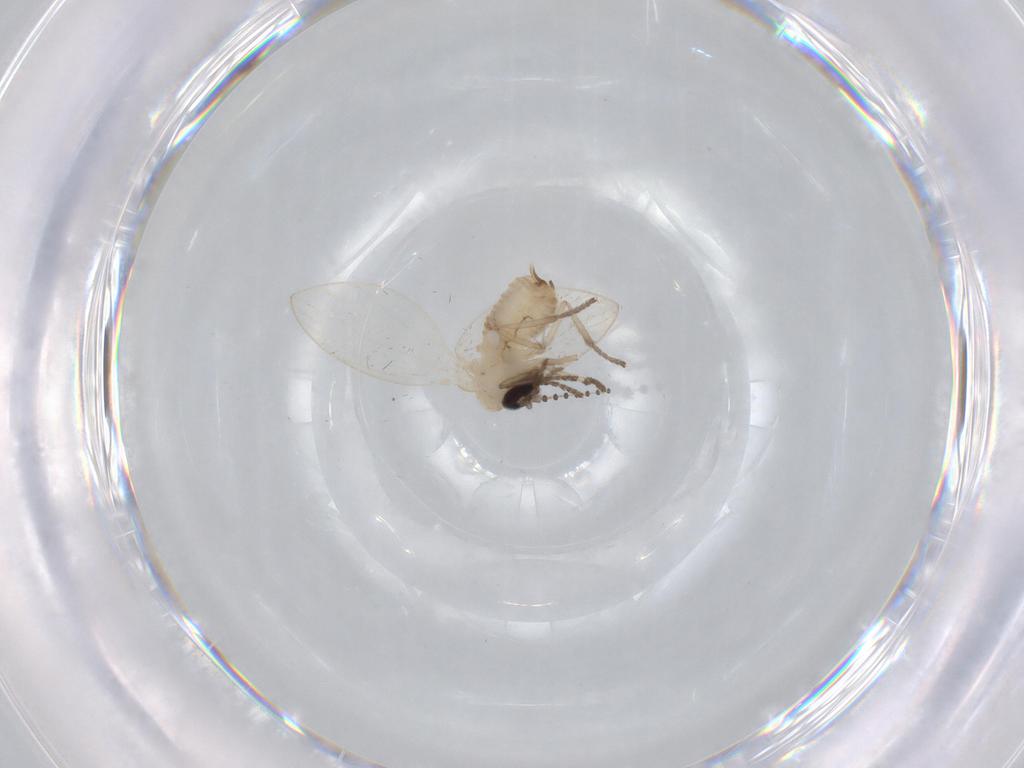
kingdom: Animalia
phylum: Arthropoda
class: Insecta
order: Diptera
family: Psychodidae
